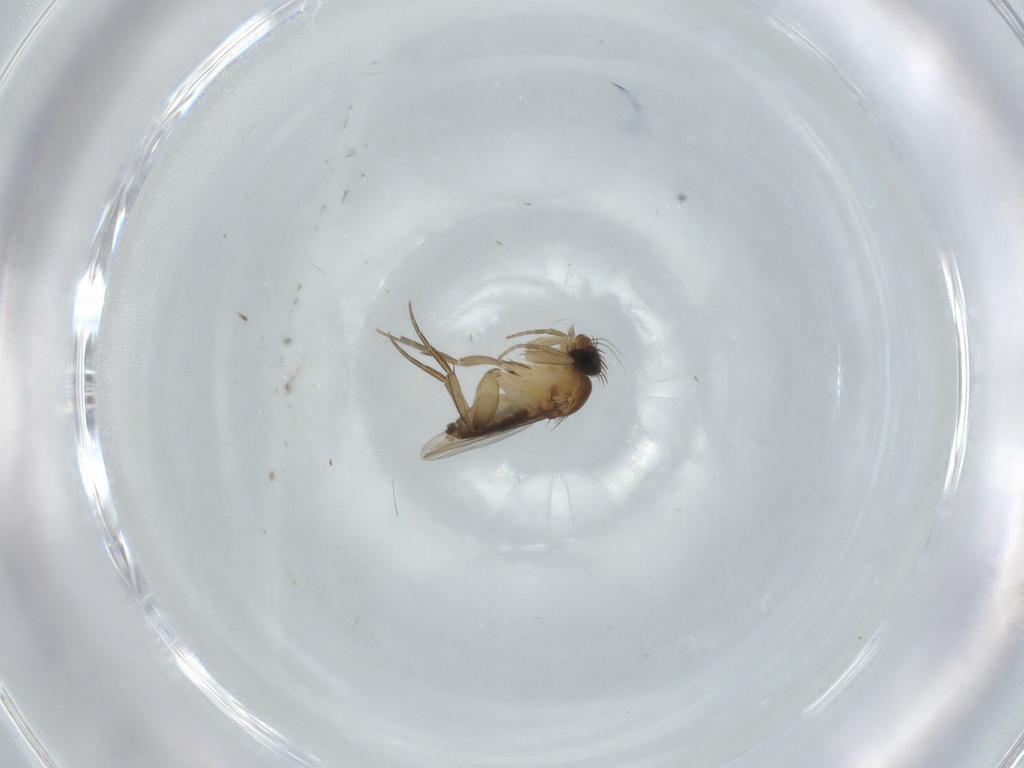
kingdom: Animalia
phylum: Arthropoda
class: Insecta
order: Diptera
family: Phoridae
